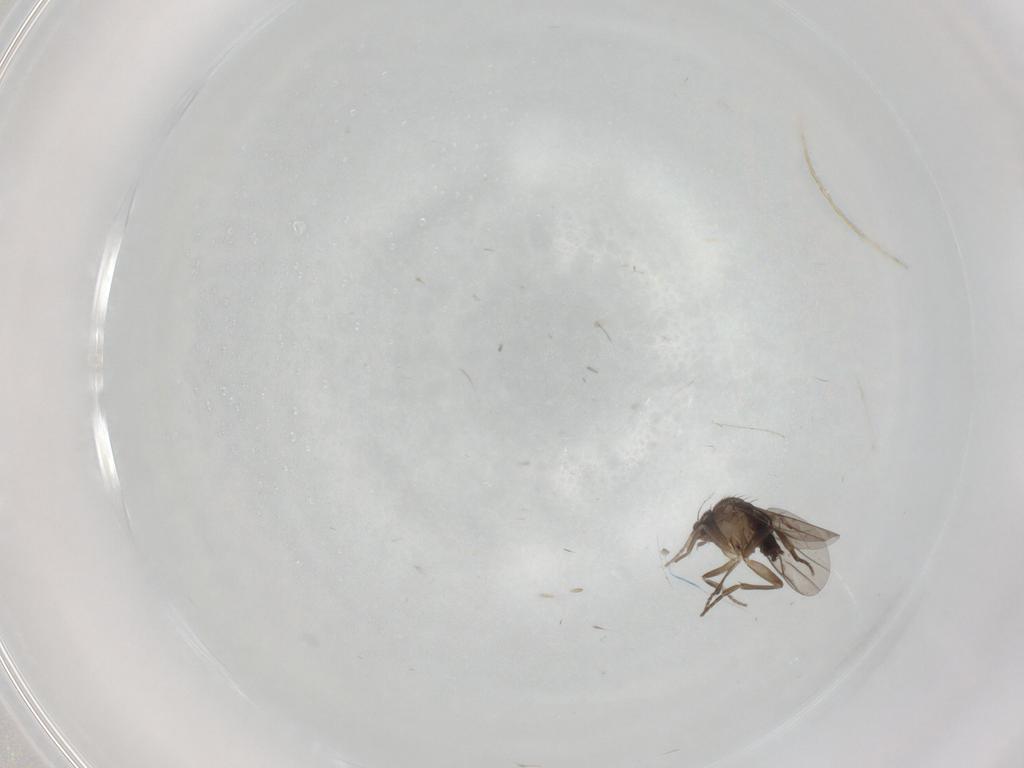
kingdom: Animalia
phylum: Arthropoda
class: Insecta
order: Diptera
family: Phoridae
